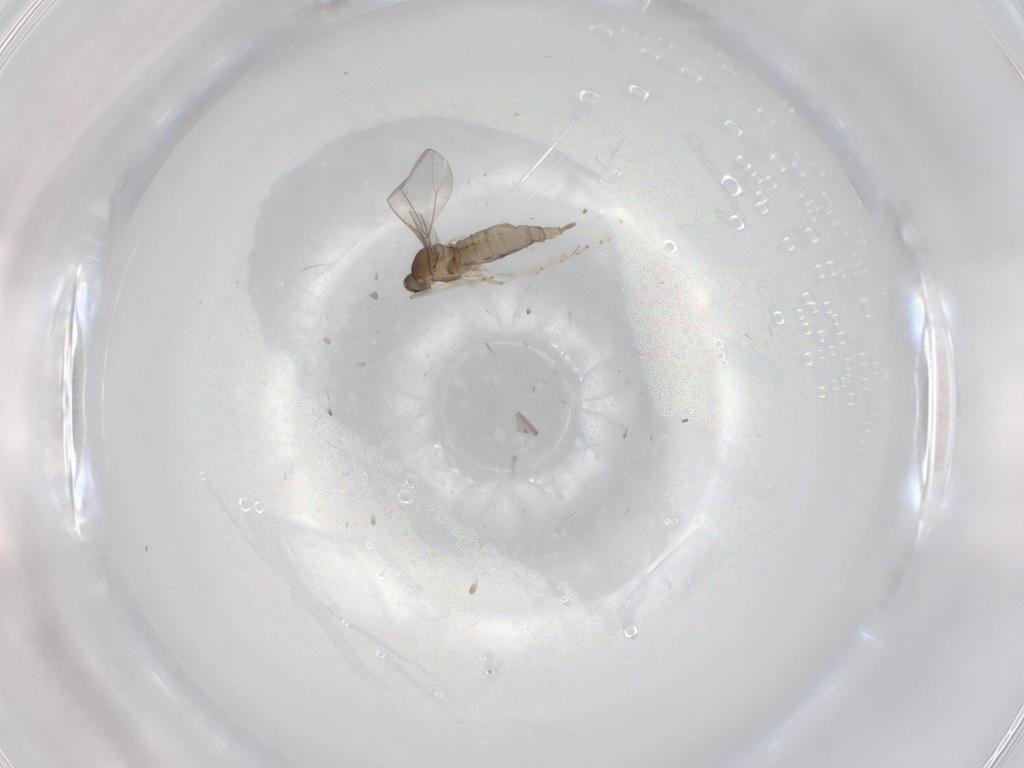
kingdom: Animalia
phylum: Arthropoda
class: Insecta
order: Diptera
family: Cecidomyiidae
